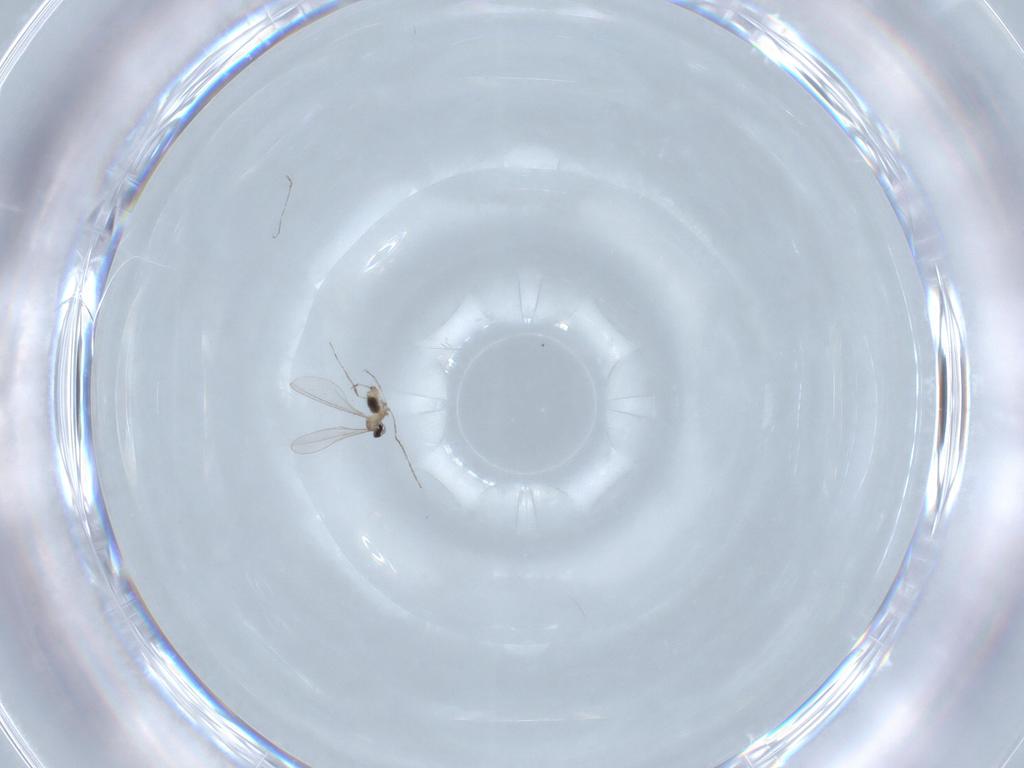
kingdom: Animalia
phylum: Arthropoda
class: Insecta
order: Diptera
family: Cecidomyiidae
